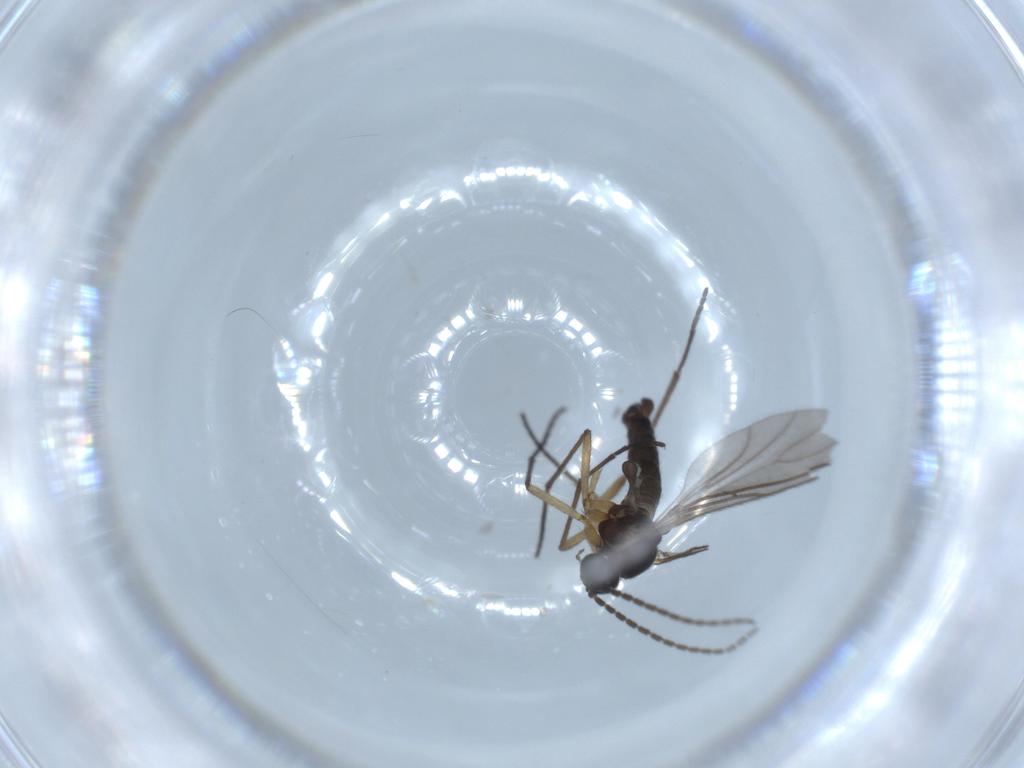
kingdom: Animalia
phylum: Arthropoda
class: Insecta
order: Diptera
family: Sciaridae
